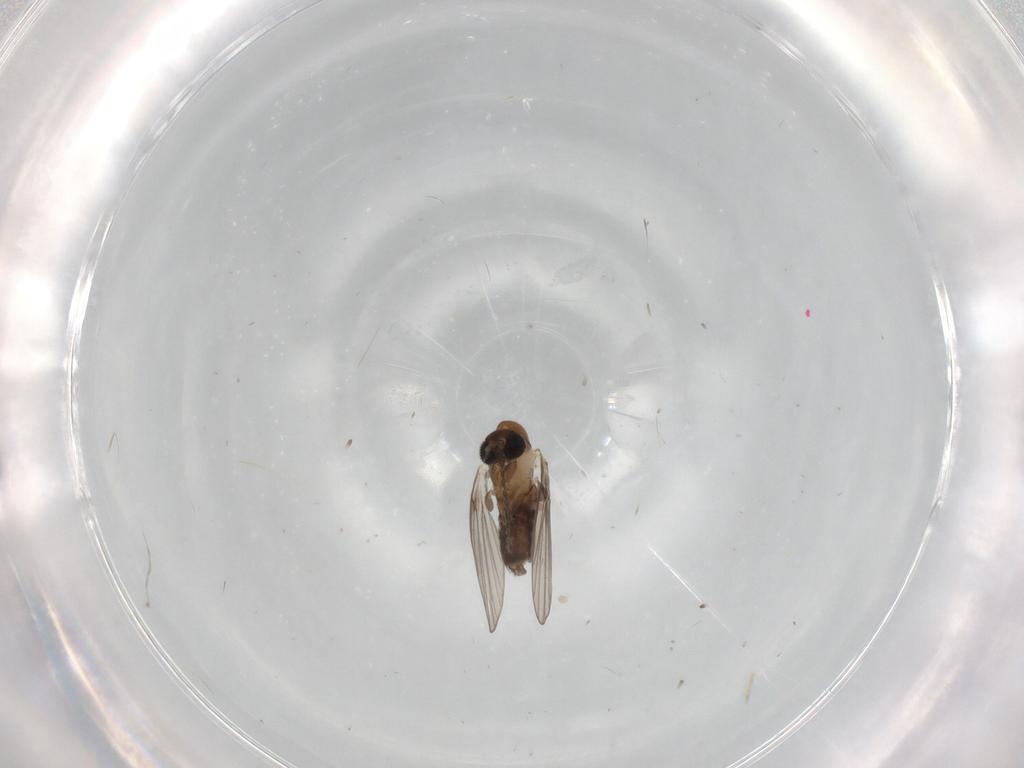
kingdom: Animalia
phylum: Arthropoda
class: Insecta
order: Diptera
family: Psychodidae
